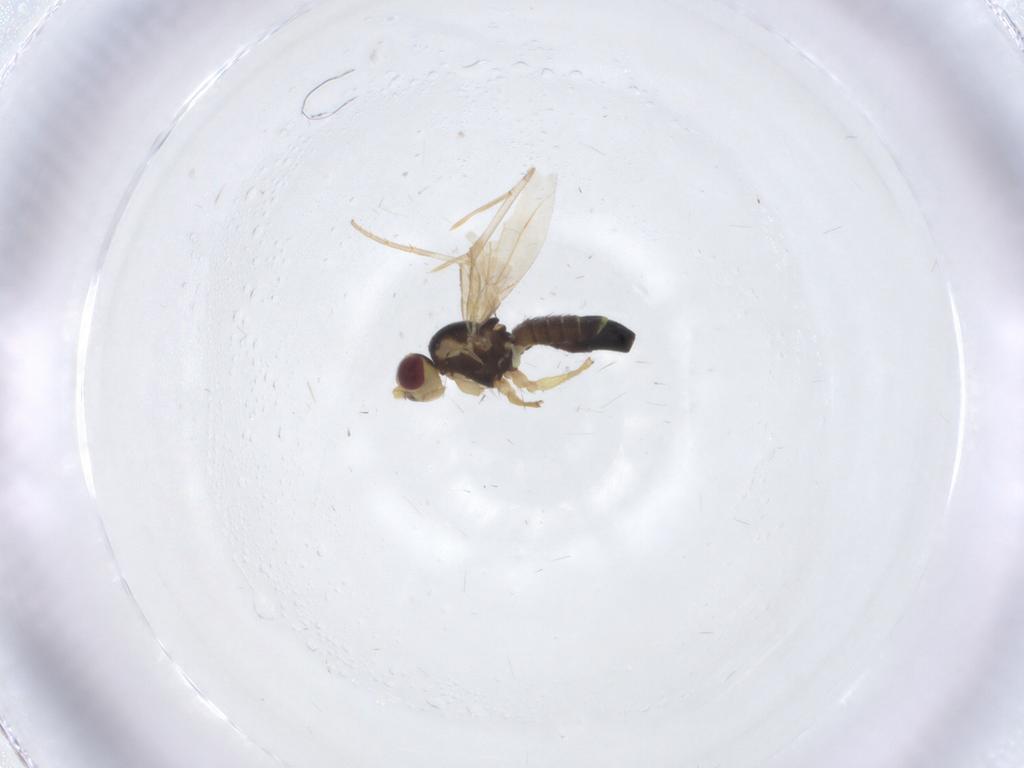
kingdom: Animalia
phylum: Arthropoda
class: Insecta
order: Diptera
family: Agromyzidae
